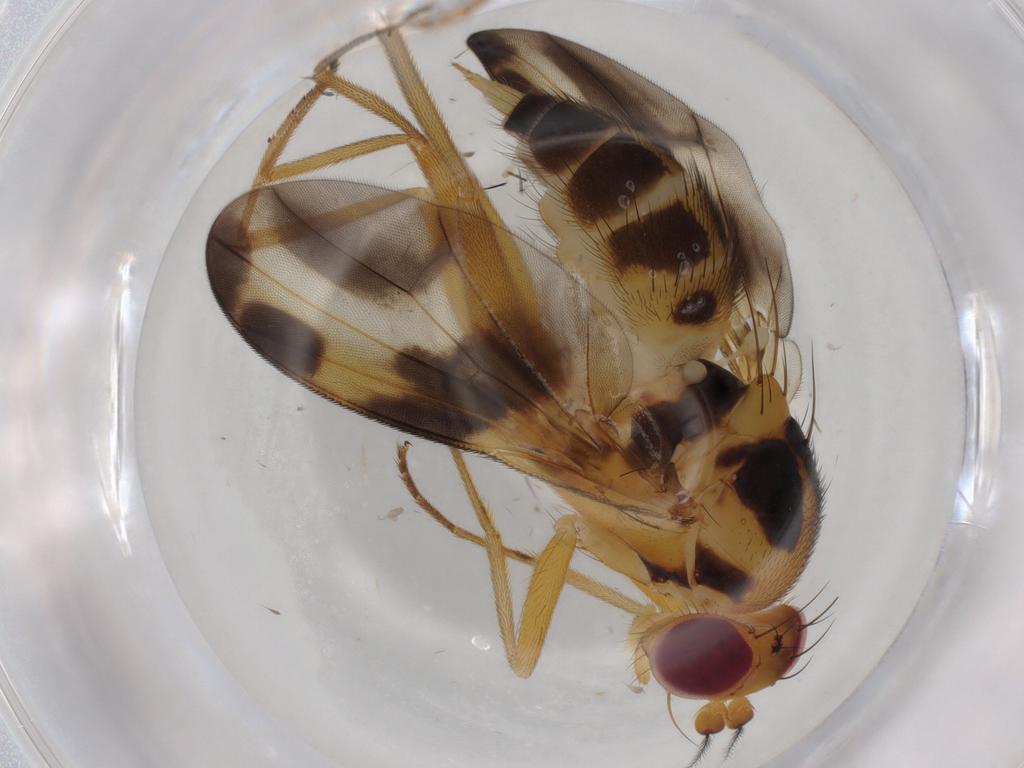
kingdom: Animalia
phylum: Arthropoda
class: Insecta
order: Diptera
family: Clusiidae
